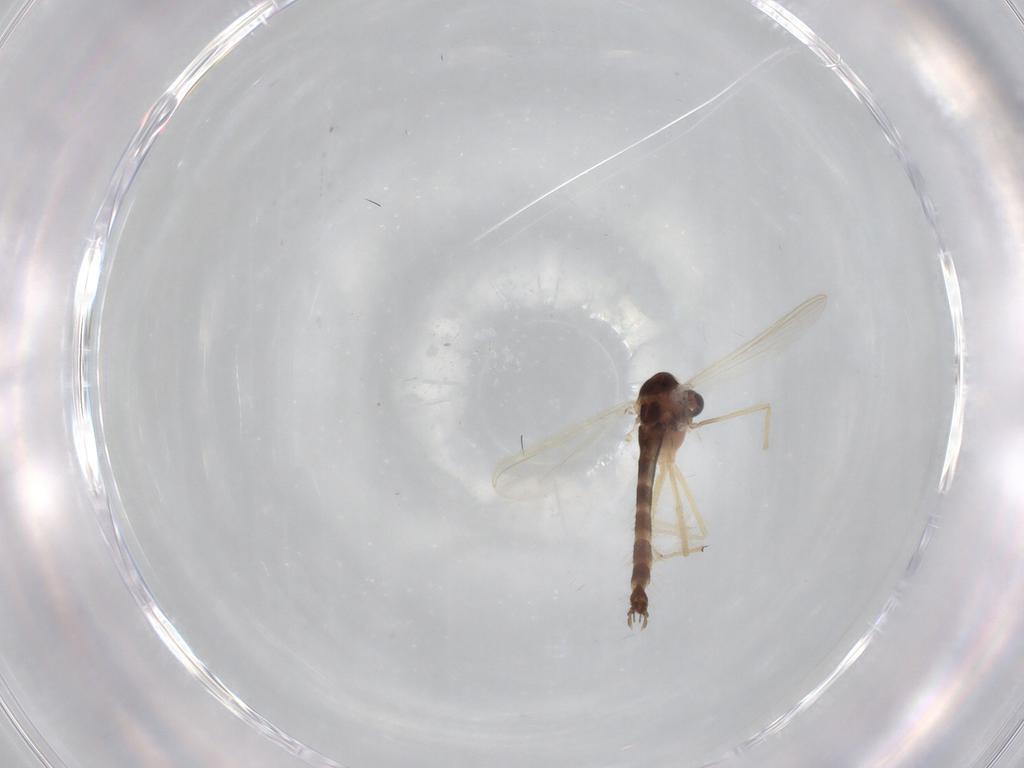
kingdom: Animalia
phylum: Arthropoda
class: Insecta
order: Diptera
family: Chironomidae
